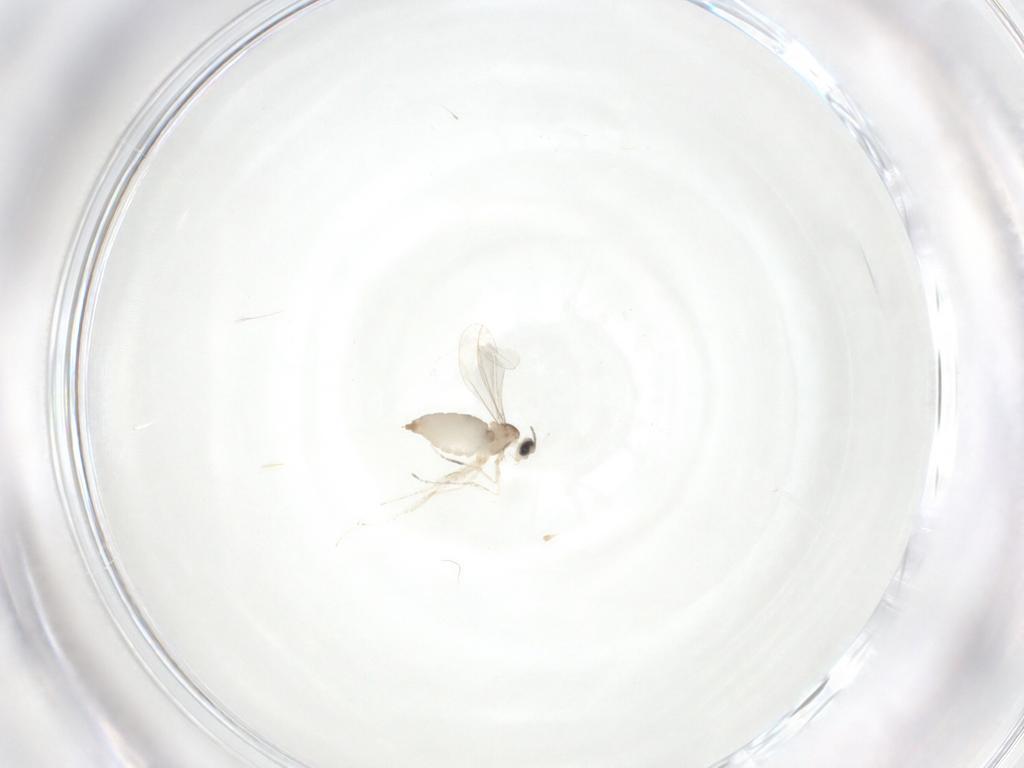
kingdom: Animalia
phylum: Arthropoda
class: Insecta
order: Diptera
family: Cecidomyiidae
